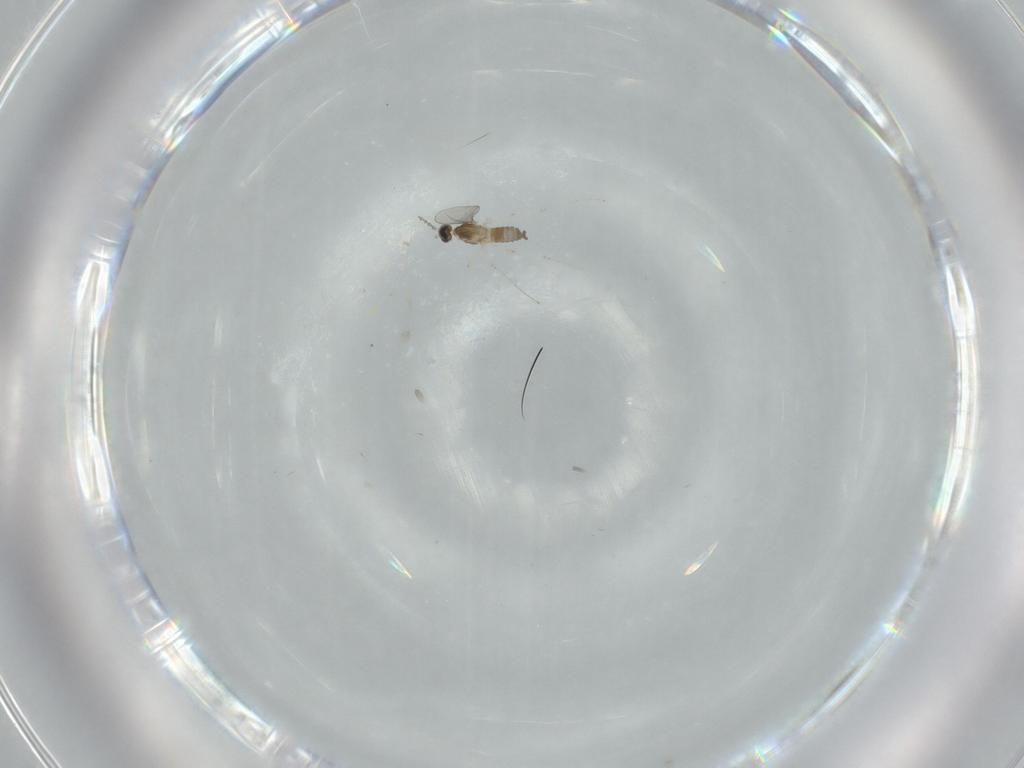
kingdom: Animalia
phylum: Arthropoda
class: Insecta
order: Diptera
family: Cecidomyiidae
